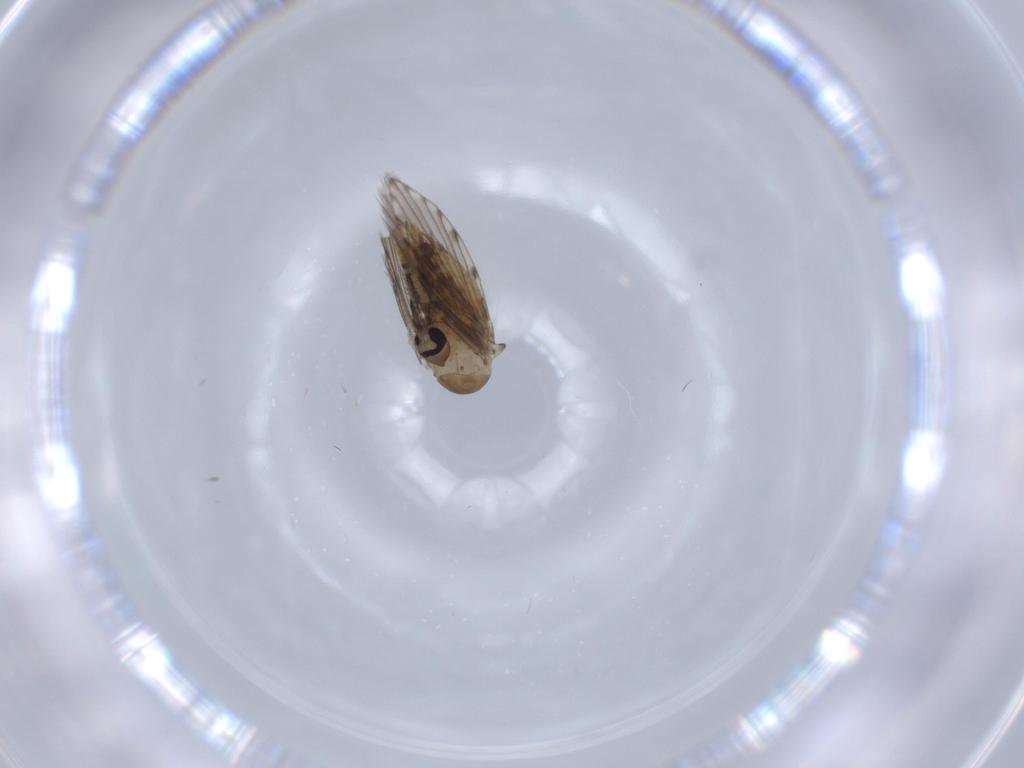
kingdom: Animalia
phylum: Arthropoda
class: Insecta
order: Diptera
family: Psychodidae
